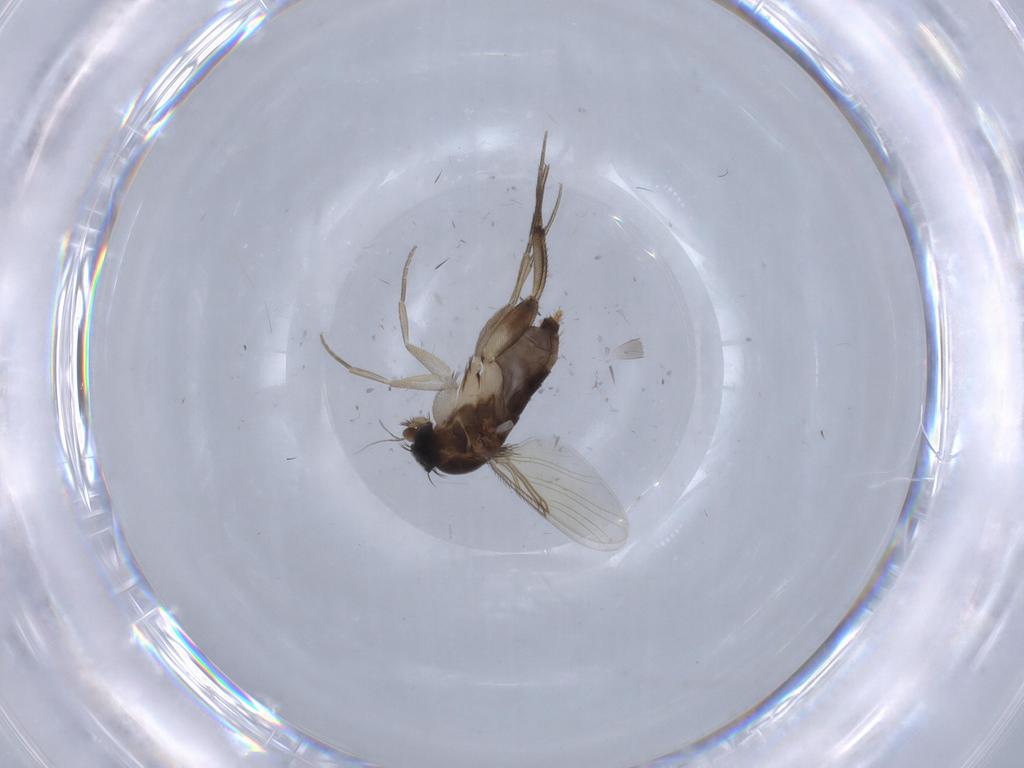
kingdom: Animalia
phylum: Arthropoda
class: Insecta
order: Diptera
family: Phoridae
